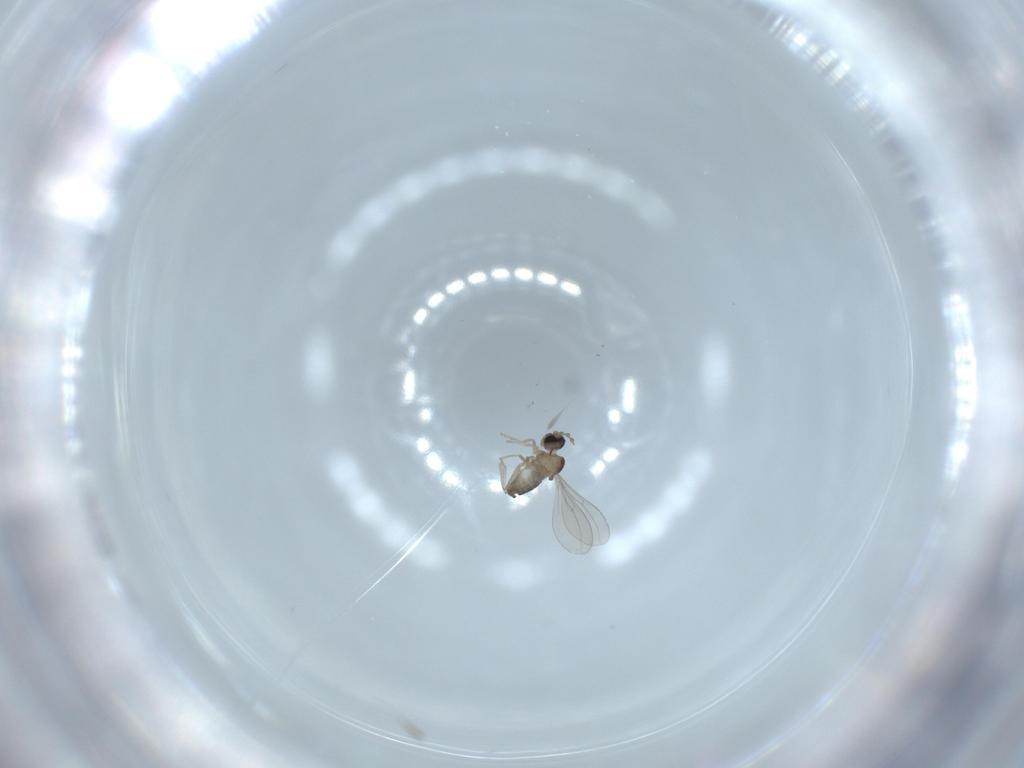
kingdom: Animalia
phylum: Arthropoda
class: Insecta
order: Diptera
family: Cecidomyiidae
